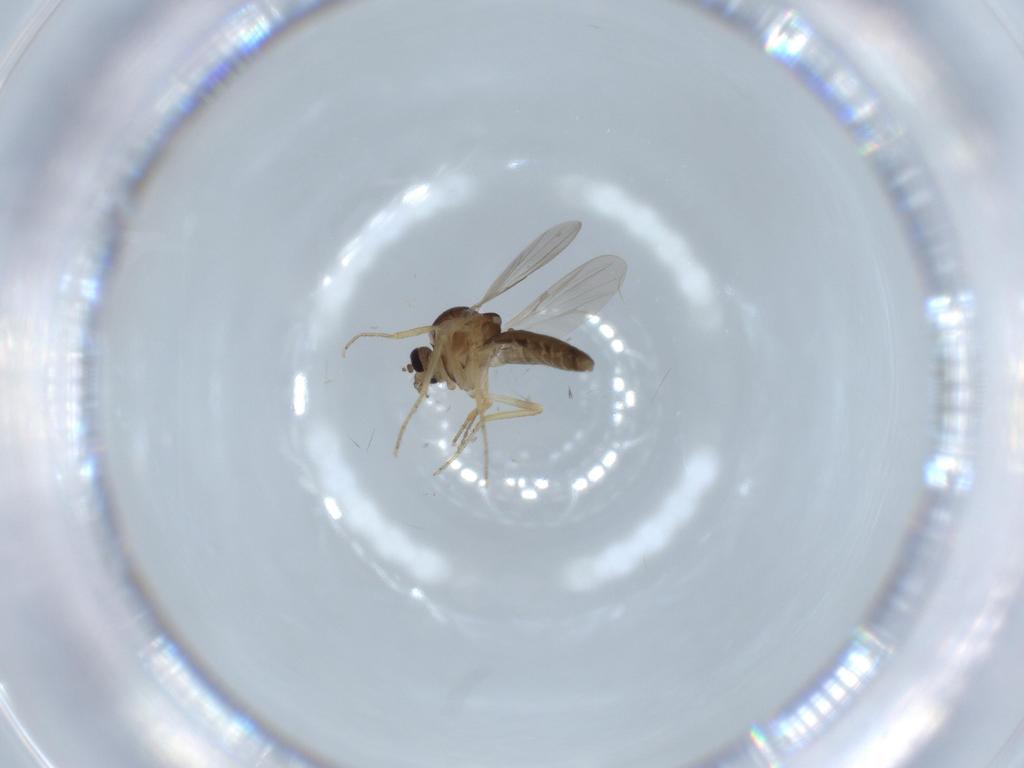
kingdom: Animalia
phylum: Arthropoda
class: Insecta
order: Diptera
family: Ceratopogonidae
